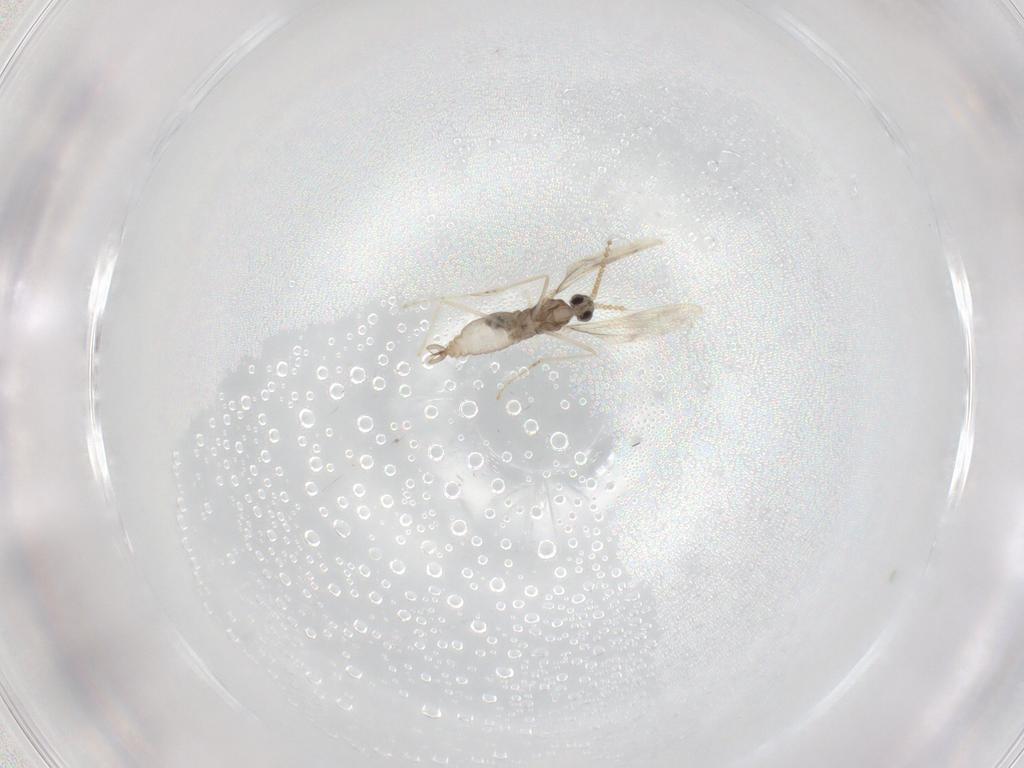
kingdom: Animalia
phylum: Arthropoda
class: Insecta
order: Diptera
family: Cecidomyiidae
